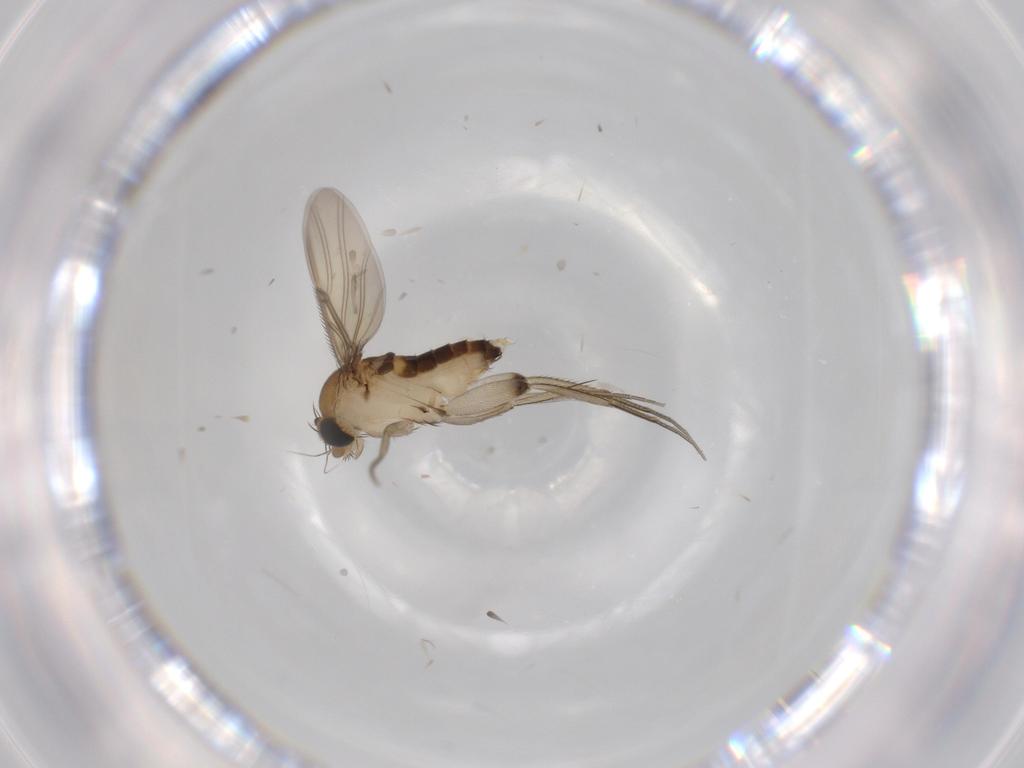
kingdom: Animalia
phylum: Arthropoda
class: Insecta
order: Diptera
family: Phoridae
